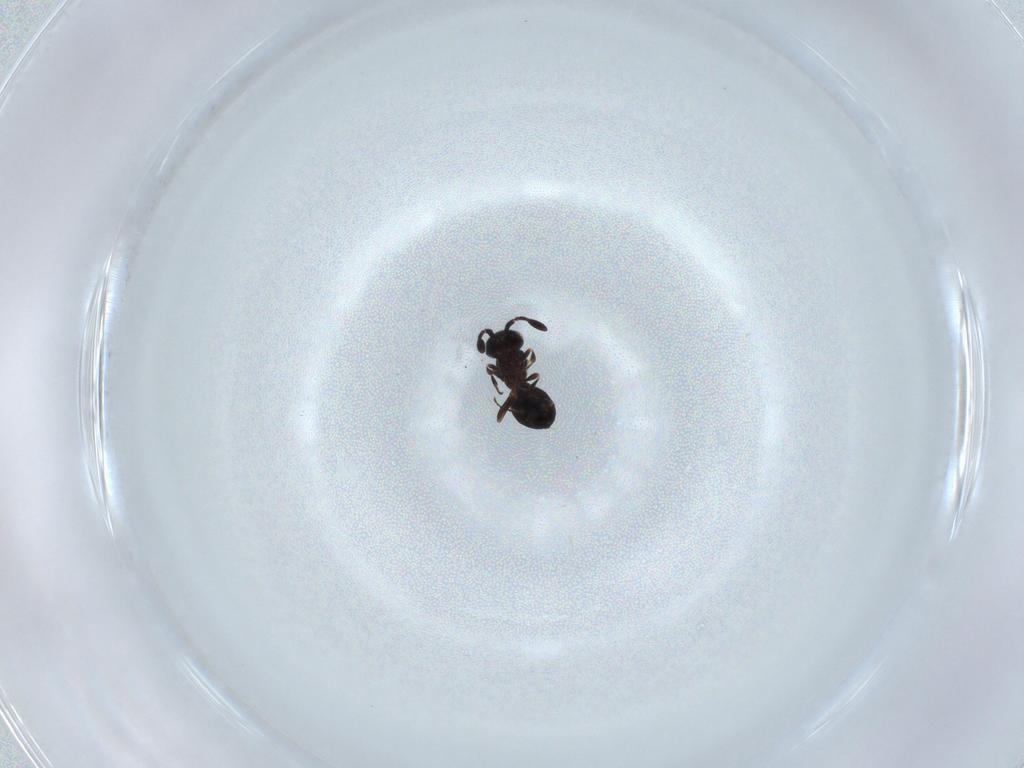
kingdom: Animalia
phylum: Arthropoda
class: Insecta
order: Hymenoptera
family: Scelionidae
